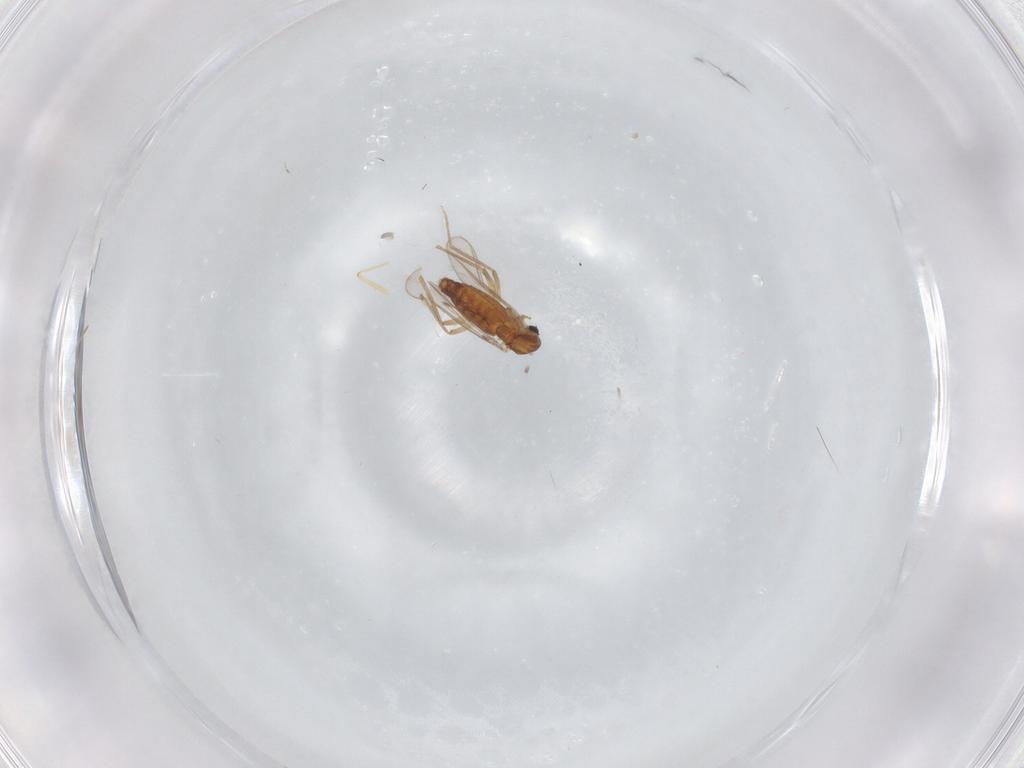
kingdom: Animalia
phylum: Arthropoda
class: Insecta
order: Diptera
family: Chironomidae
